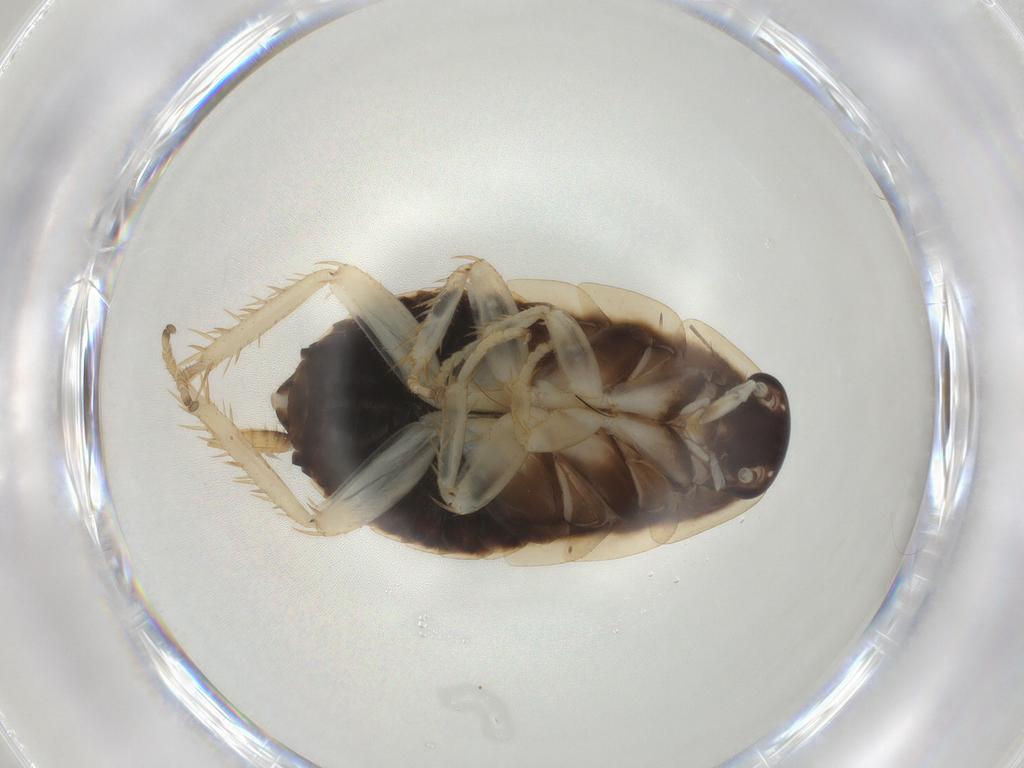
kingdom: Animalia
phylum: Arthropoda
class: Insecta
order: Blattodea
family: Ectobiidae
